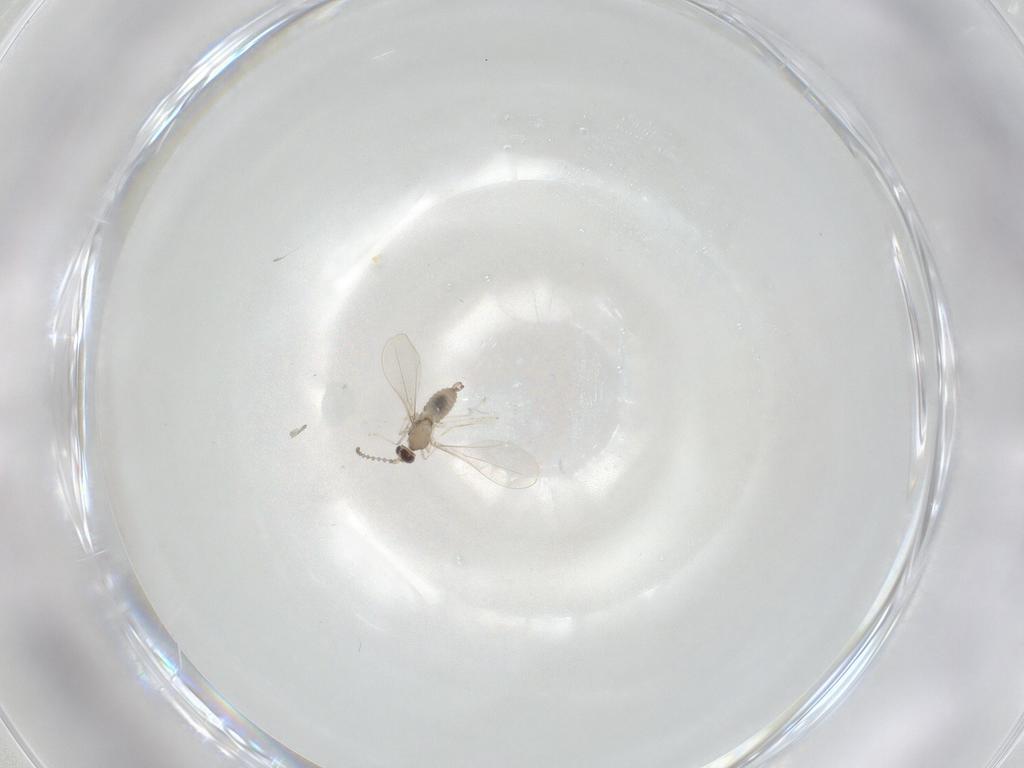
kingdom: Animalia
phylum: Arthropoda
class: Insecta
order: Diptera
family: Cecidomyiidae
